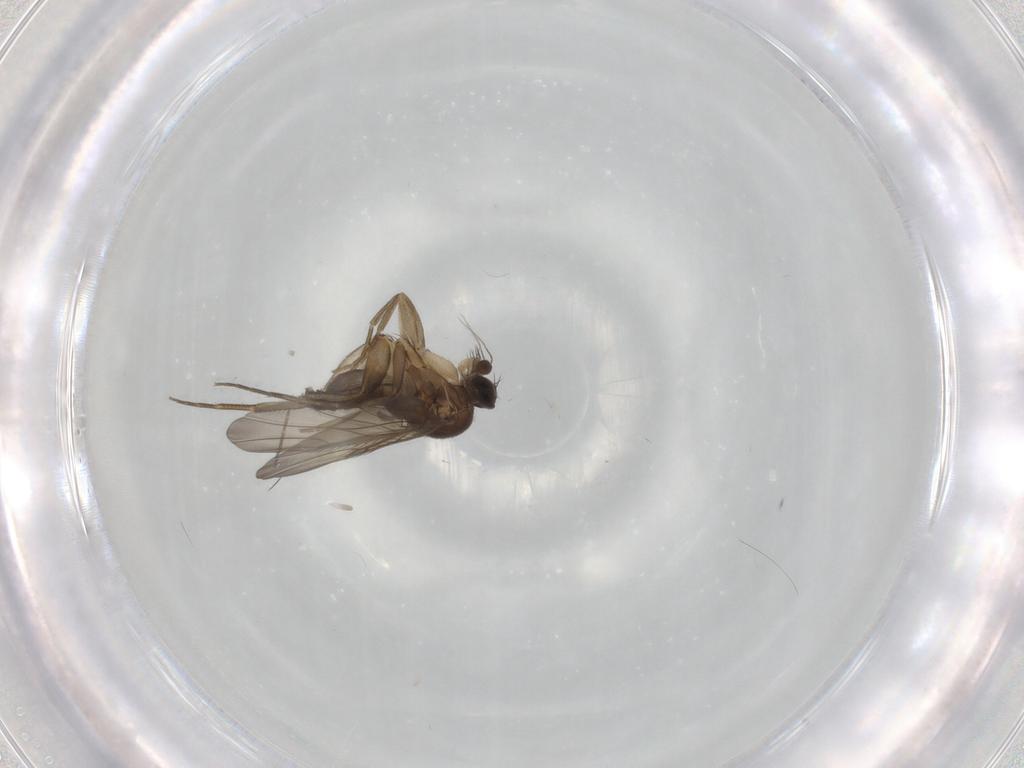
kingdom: Animalia
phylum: Arthropoda
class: Insecta
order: Diptera
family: Phoridae
